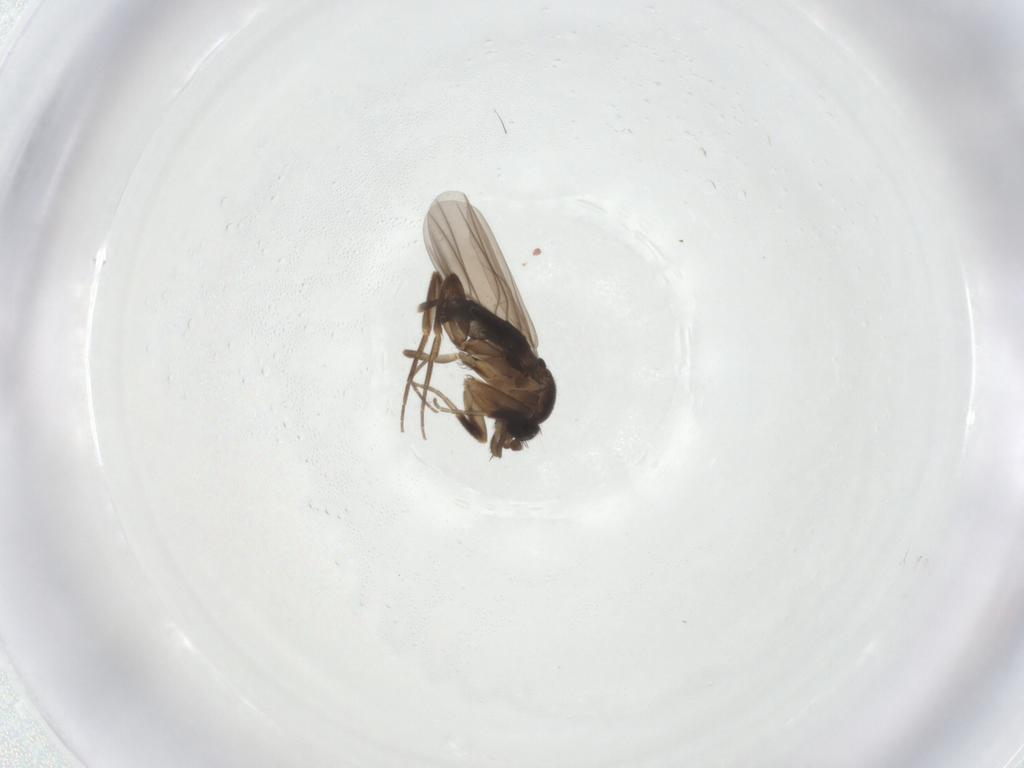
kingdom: Animalia
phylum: Arthropoda
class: Insecta
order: Diptera
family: Phoridae
